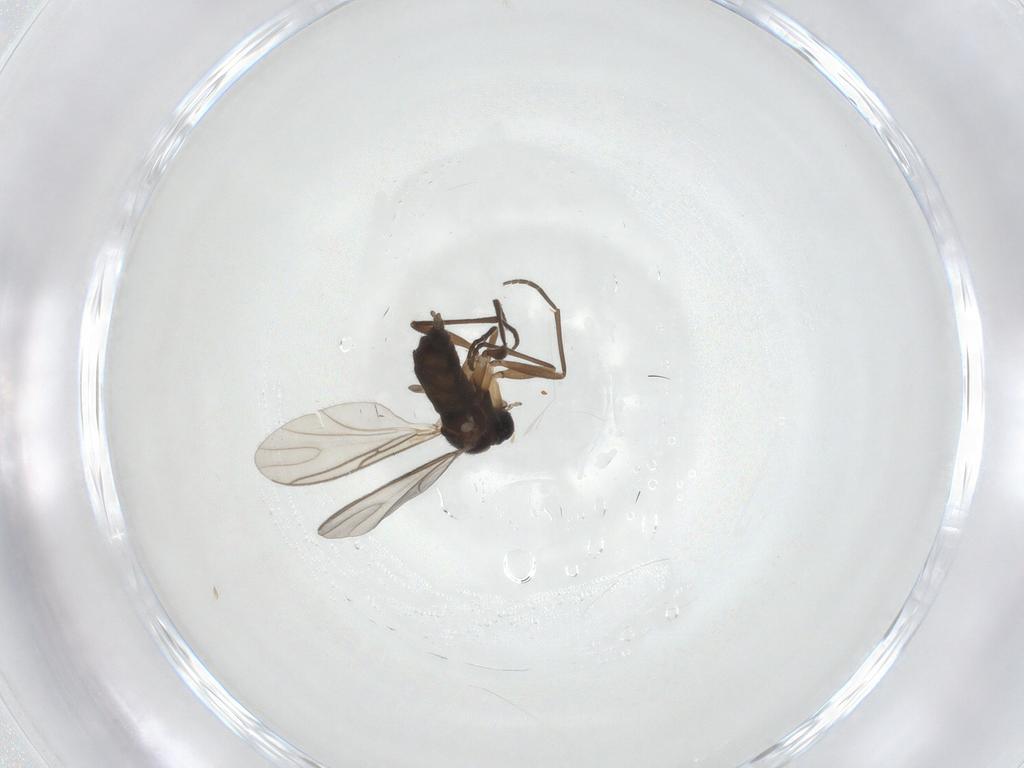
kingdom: Animalia
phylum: Arthropoda
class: Insecta
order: Diptera
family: Sciaridae
